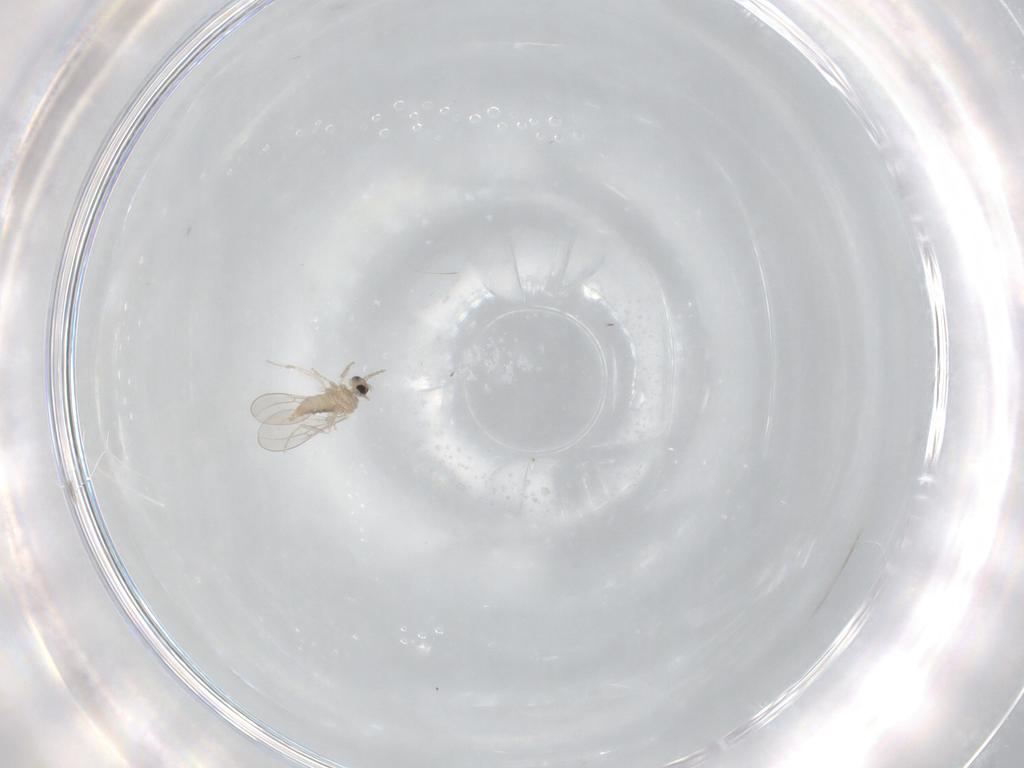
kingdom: Animalia
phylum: Arthropoda
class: Insecta
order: Diptera
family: Cecidomyiidae
